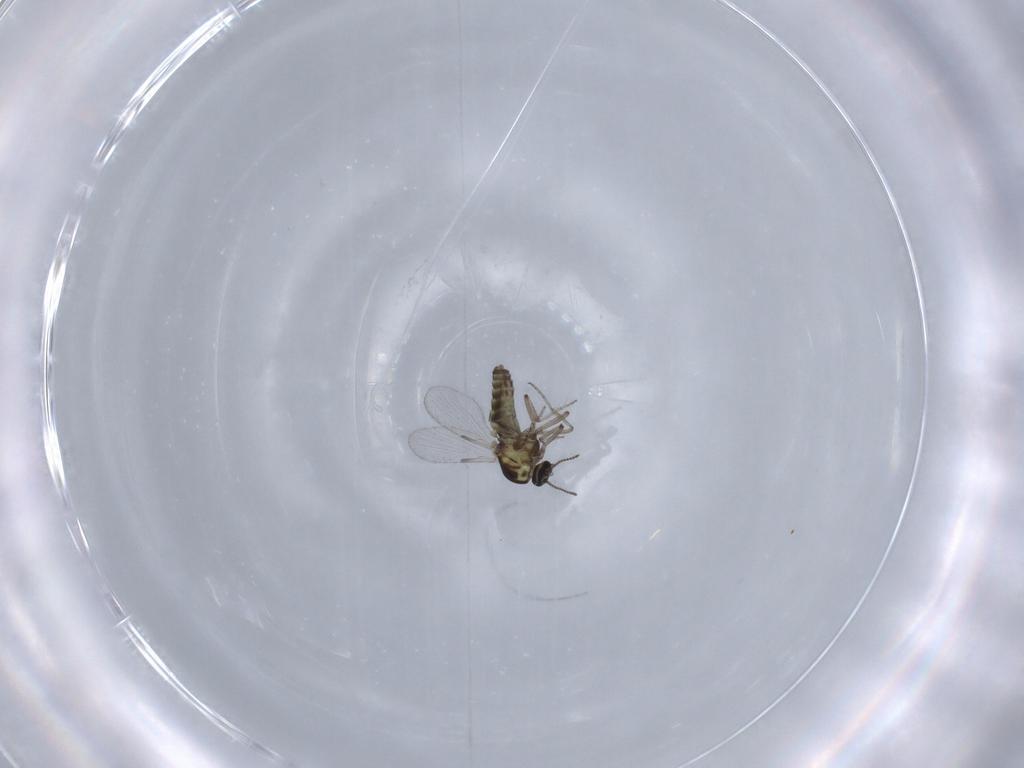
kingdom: Animalia
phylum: Arthropoda
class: Insecta
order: Diptera
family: Ceratopogonidae
